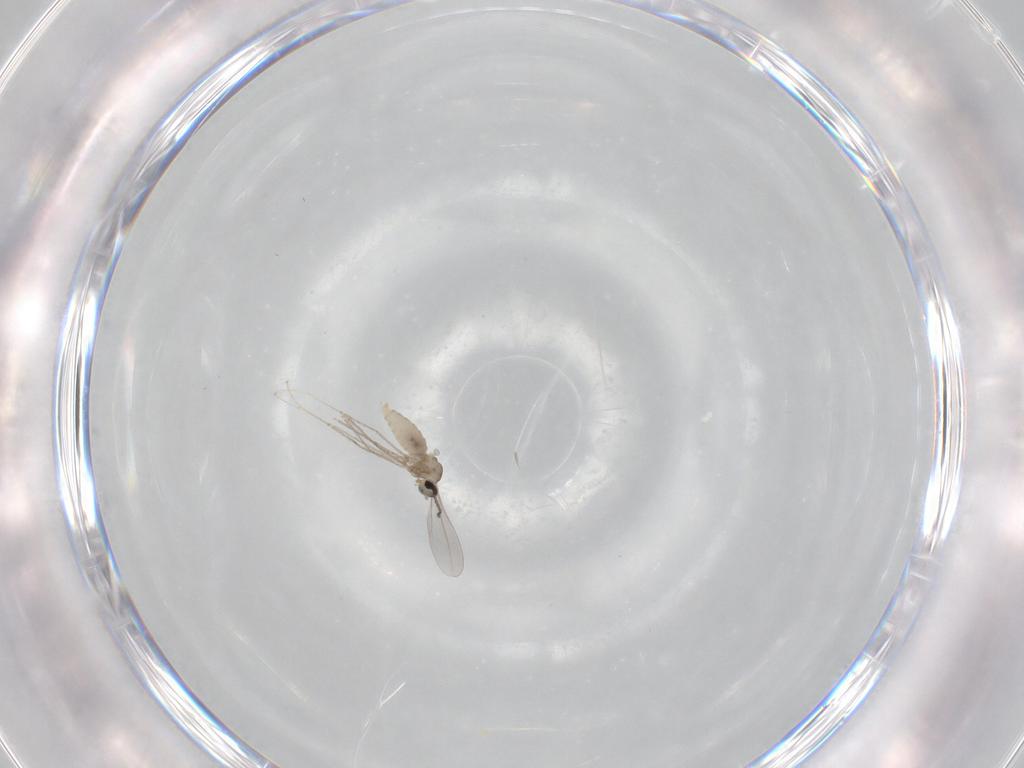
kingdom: Animalia
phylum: Arthropoda
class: Insecta
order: Diptera
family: Cecidomyiidae
